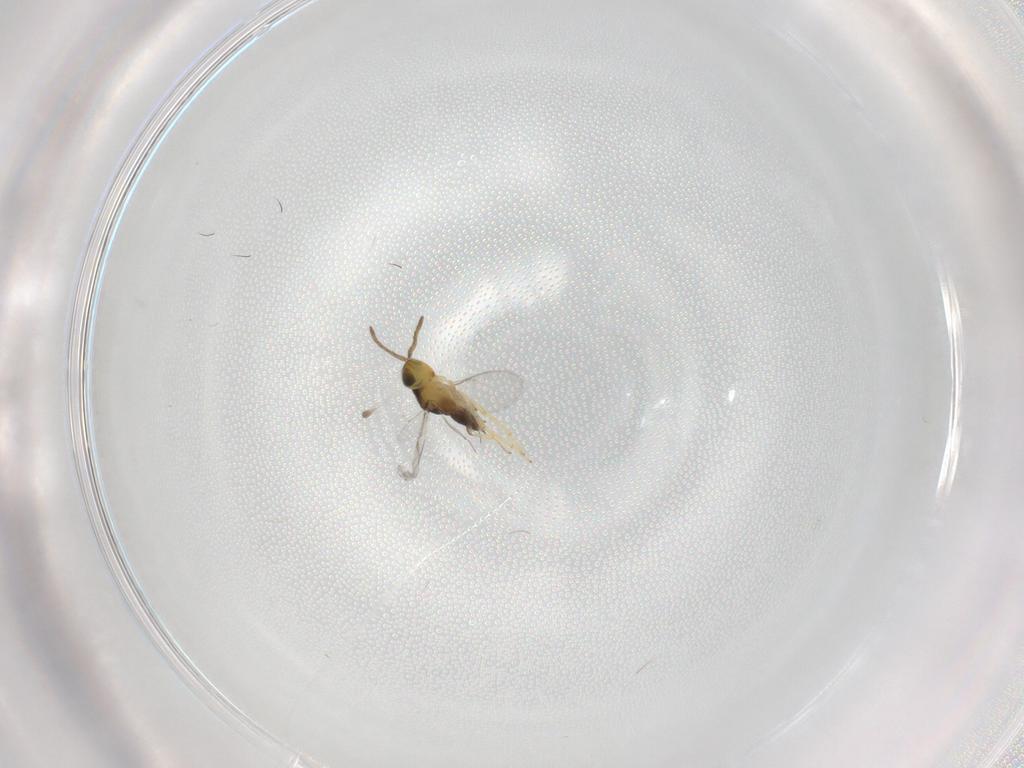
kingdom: Animalia
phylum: Arthropoda
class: Insecta
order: Hymenoptera
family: Encyrtidae
